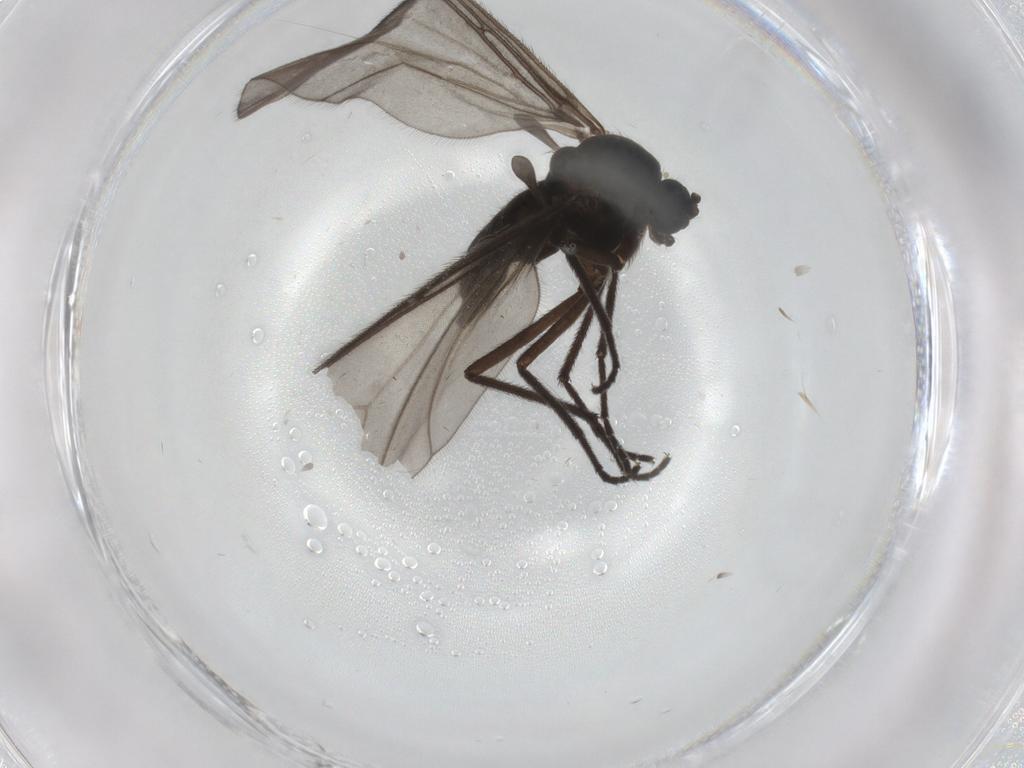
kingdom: Animalia
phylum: Arthropoda
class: Insecta
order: Diptera
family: Sciaridae
